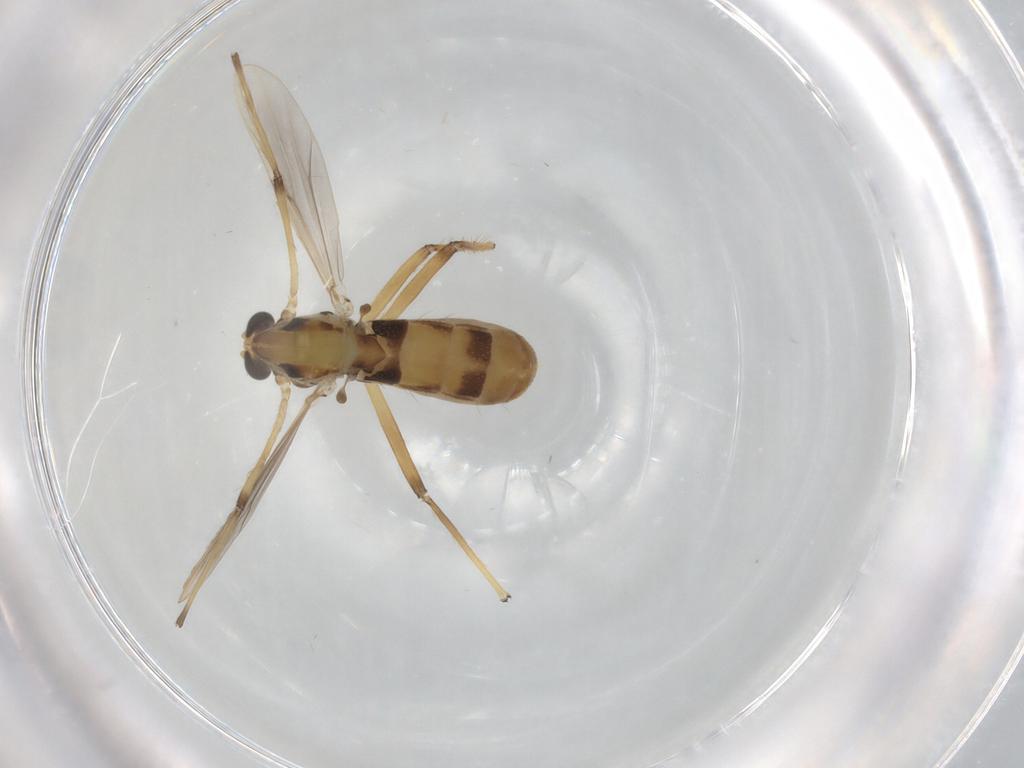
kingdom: Animalia
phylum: Arthropoda
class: Insecta
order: Diptera
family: Chironomidae
